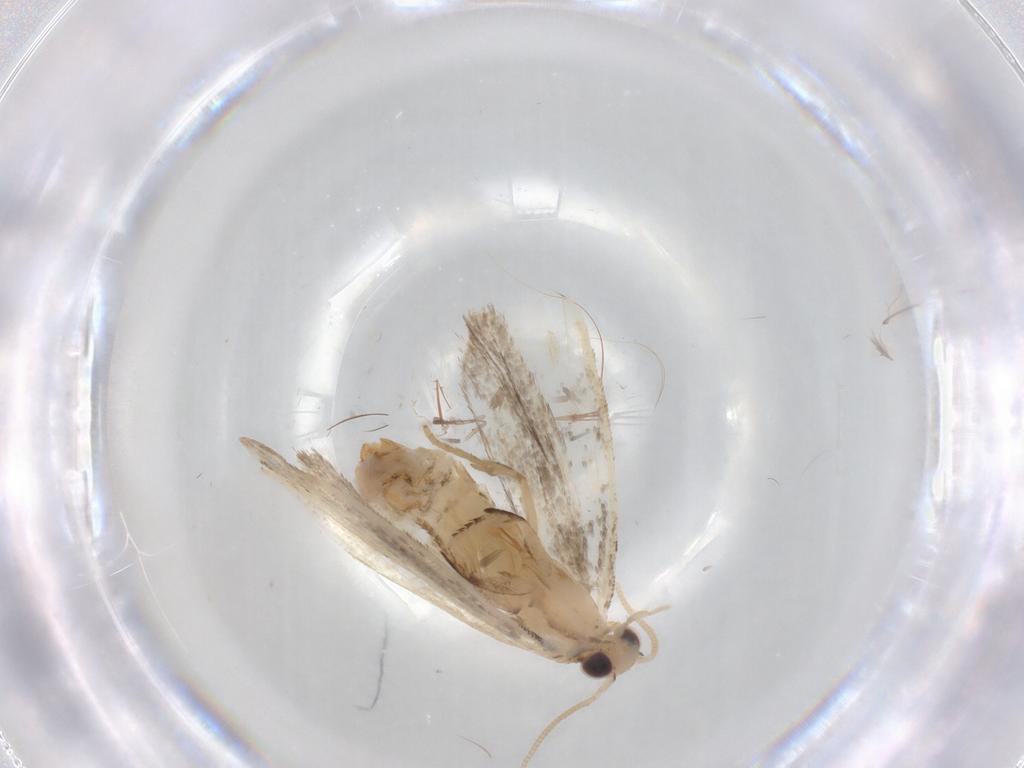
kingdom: Animalia
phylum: Arthropoda
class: Insecta
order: Lepidoptera
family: Dryadaulidae
